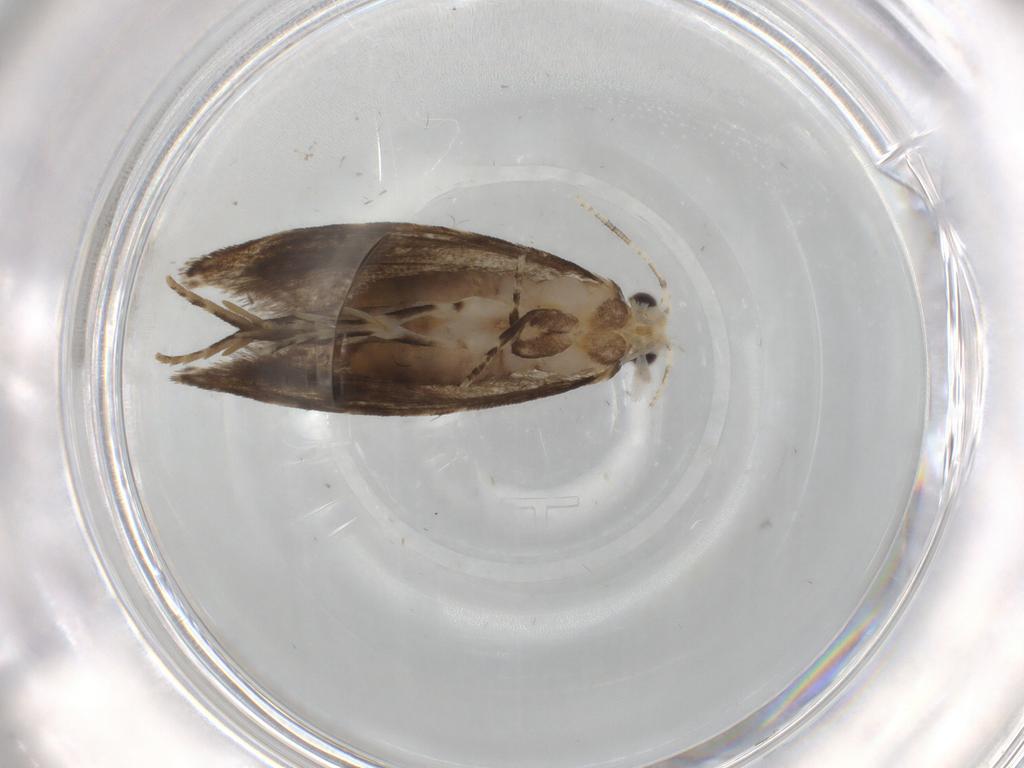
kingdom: Animalia
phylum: Arthropoda
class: Insecta
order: Lepidoptera
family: Tineidae
